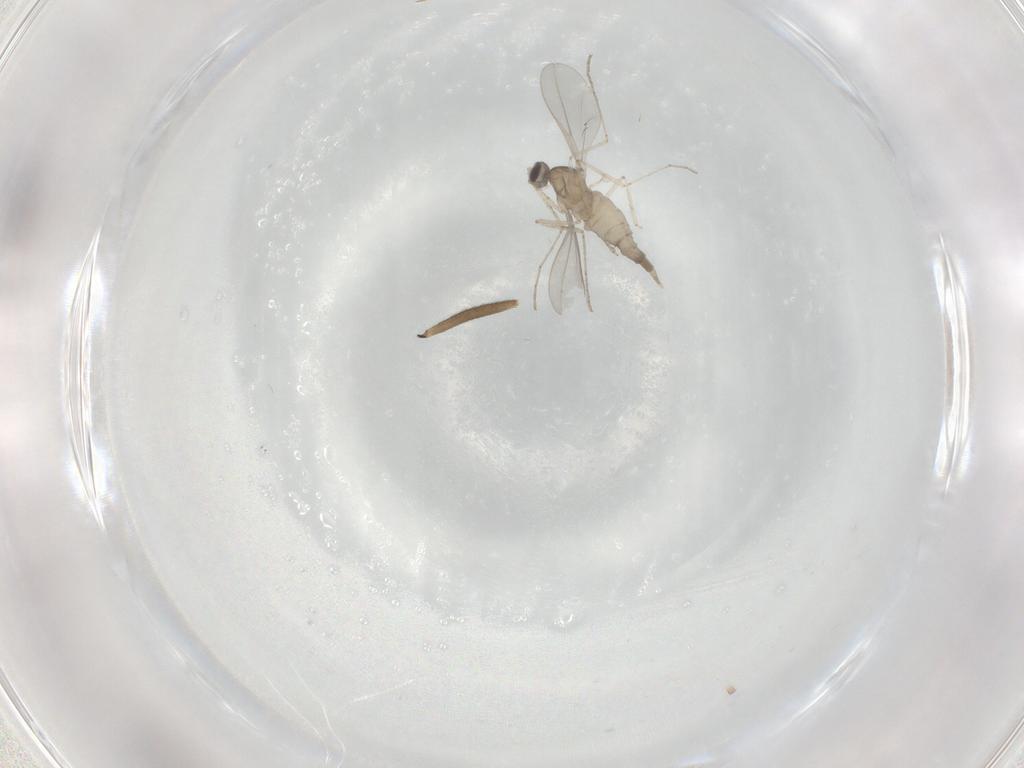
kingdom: Animalia
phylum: Arthropoda
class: Insecta
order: Diptera
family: Cecidomyiidae
